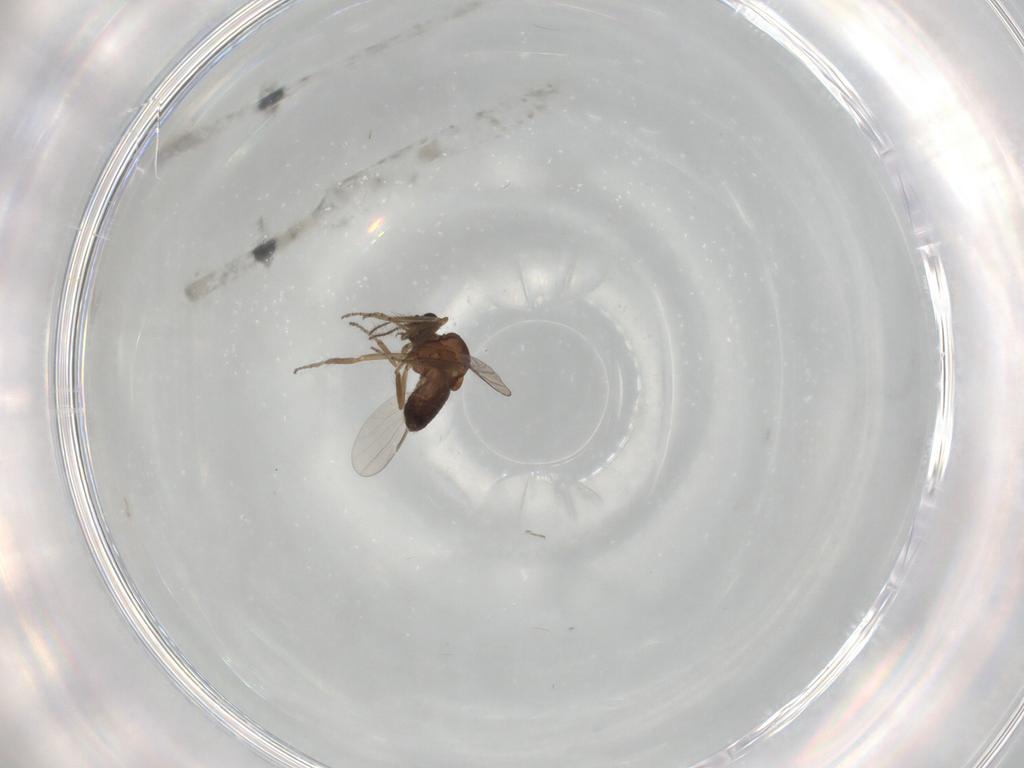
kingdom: Animalia
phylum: Arthropoda
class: Insecta
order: Diptera
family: Ceratopogonidae
